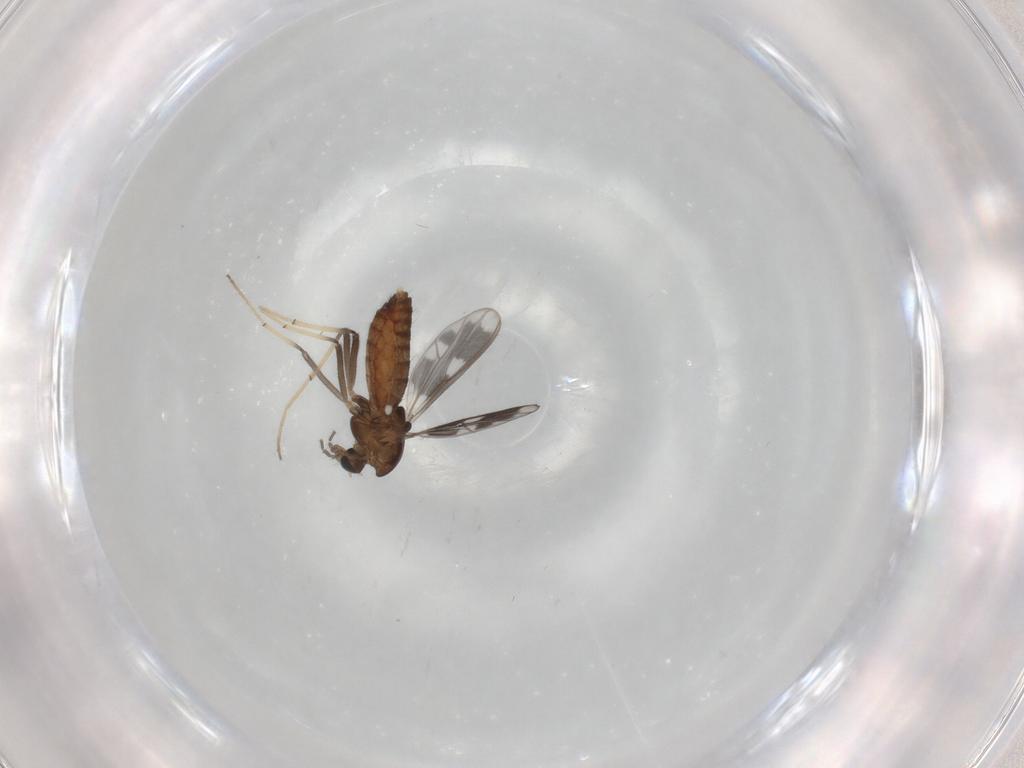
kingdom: Animalia
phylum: Arthropoda
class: Insecta
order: Diptera
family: Chironomidae
